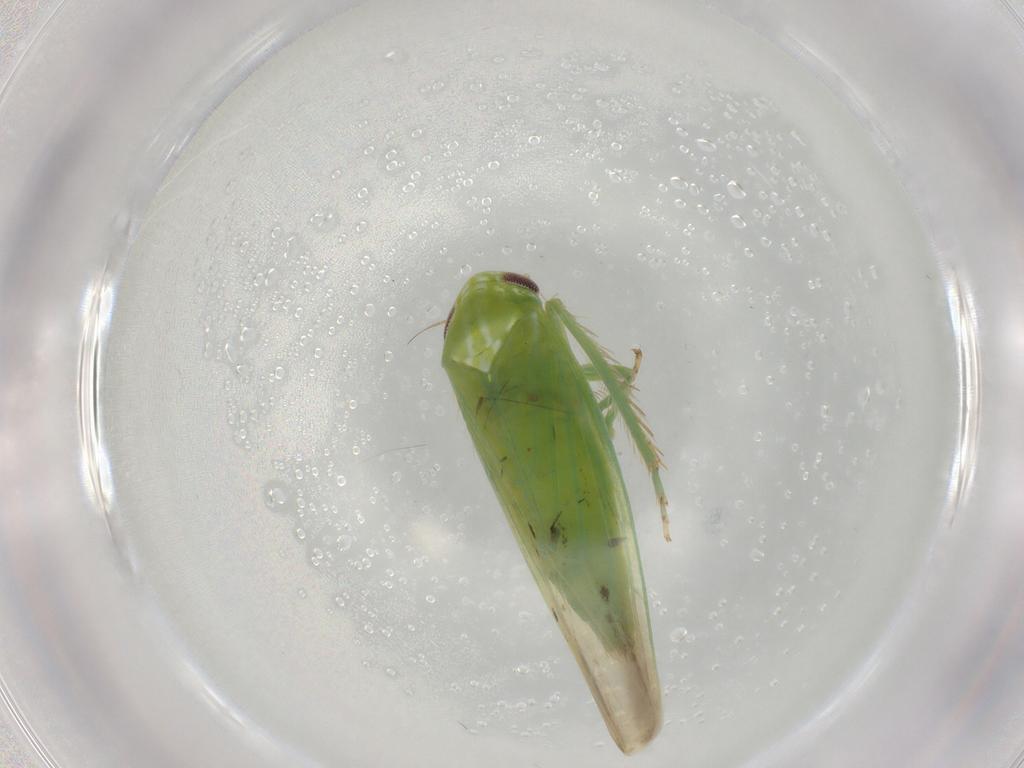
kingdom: Animalia
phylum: Arthropoda
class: Insecta
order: Hemiptera
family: Cicadellidae
